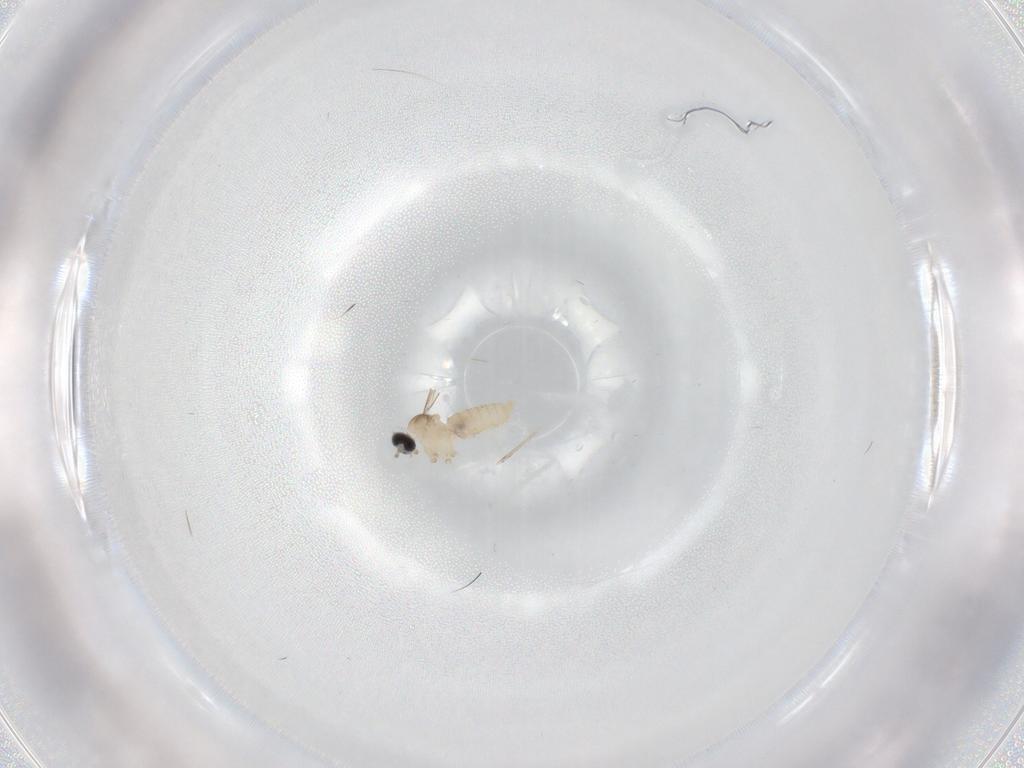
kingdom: Animalia
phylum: Arthropoda
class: Insecta
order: Diptera
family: Cecidomyiidae
